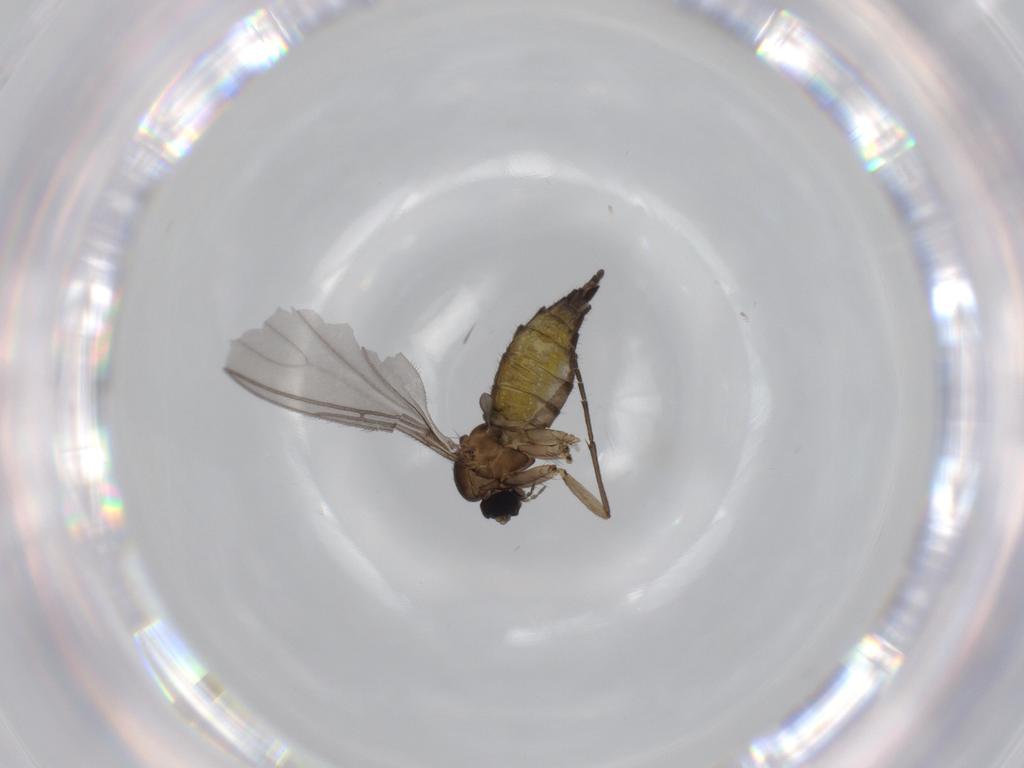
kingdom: Animalia
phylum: Arthropoda
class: Insecta
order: Diptera
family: Sciaridae
